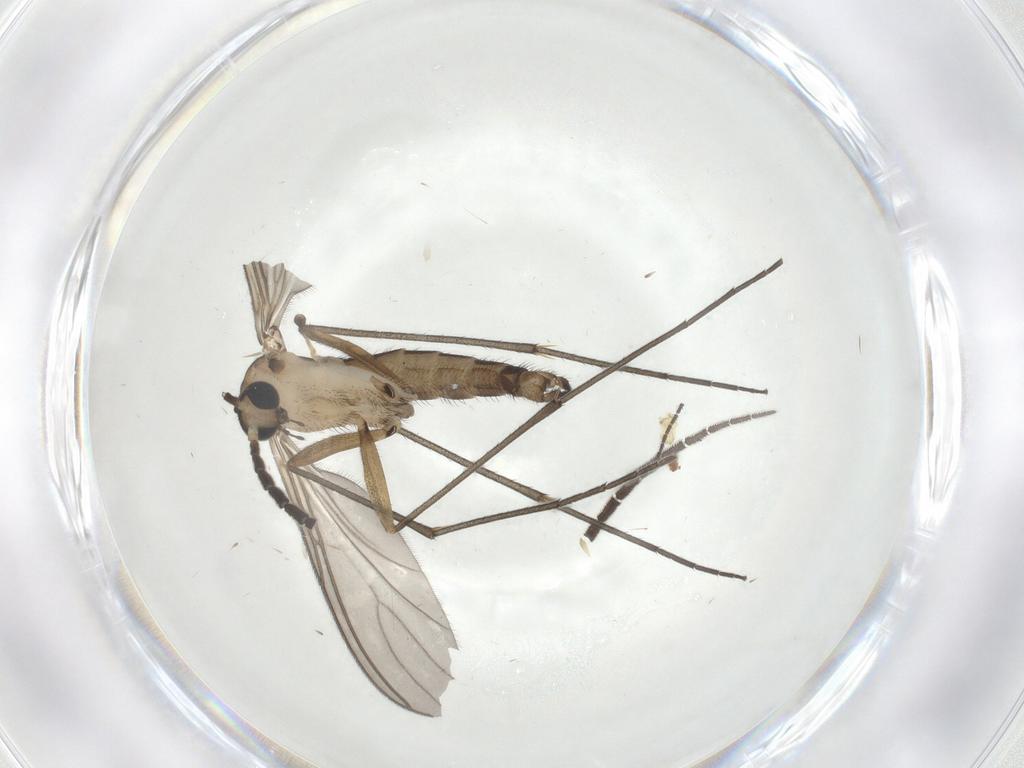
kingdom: Animalia
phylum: Arthropoda
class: Insecta
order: Diptera
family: Sciaridae
